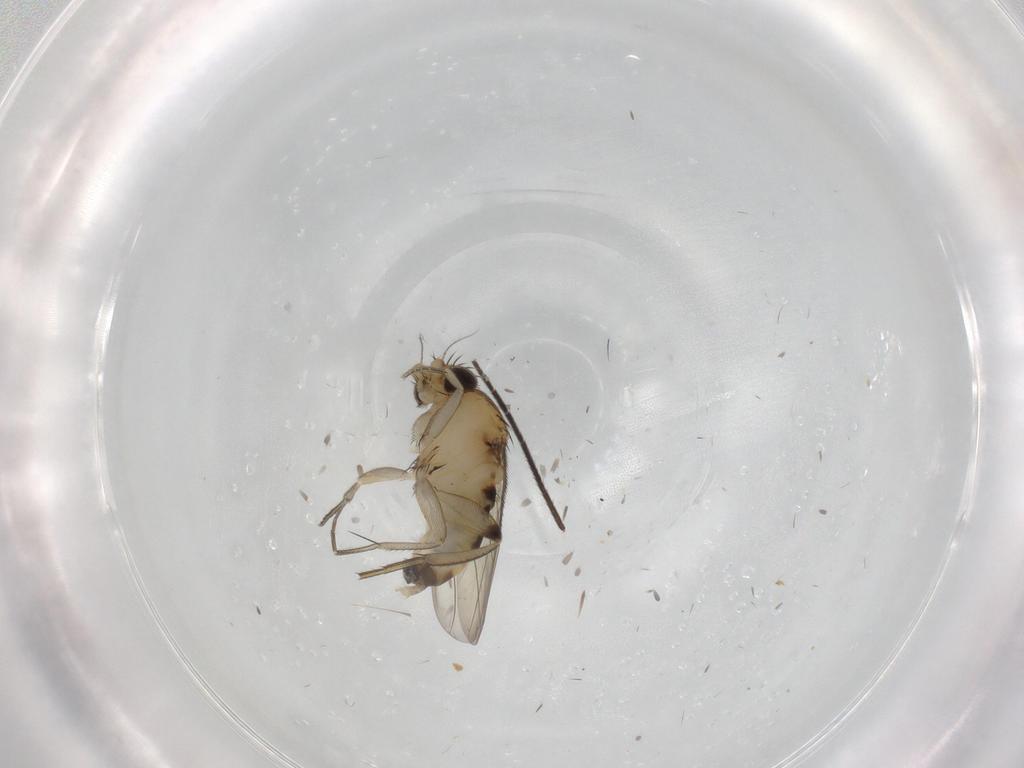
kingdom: Animalia
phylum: Arthropoda
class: Insecta
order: Diptera
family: Phoridae
